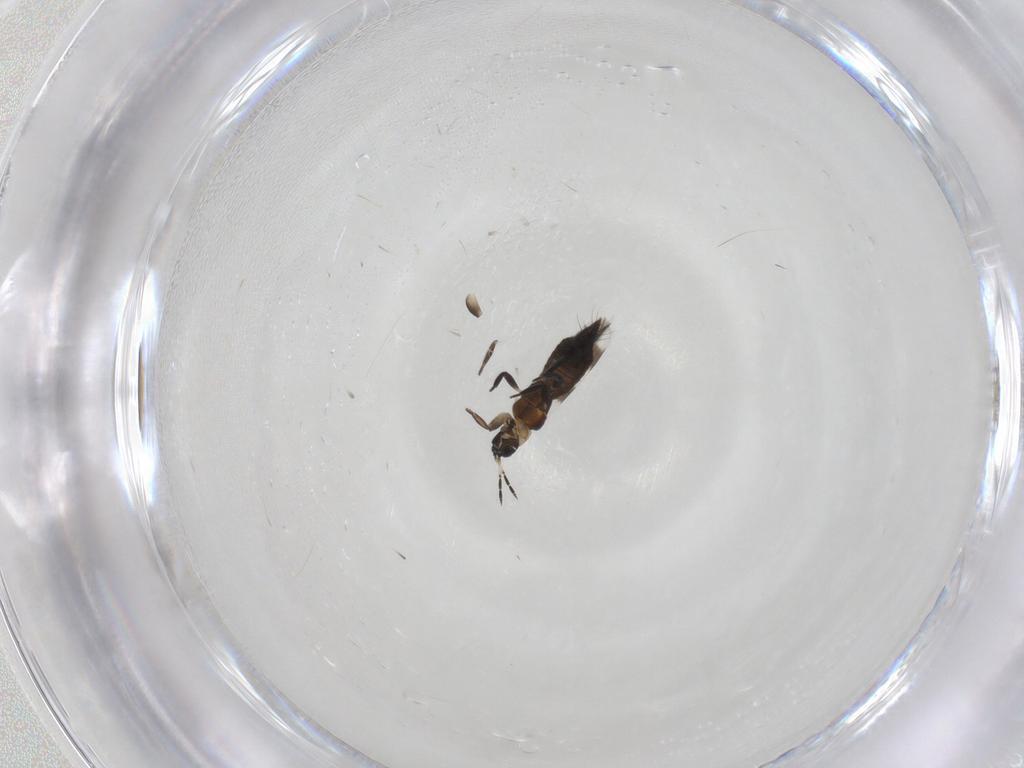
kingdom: Animalia
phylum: Arthropoda
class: Insecta
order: Thysanoptera
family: Aeolothripidae
